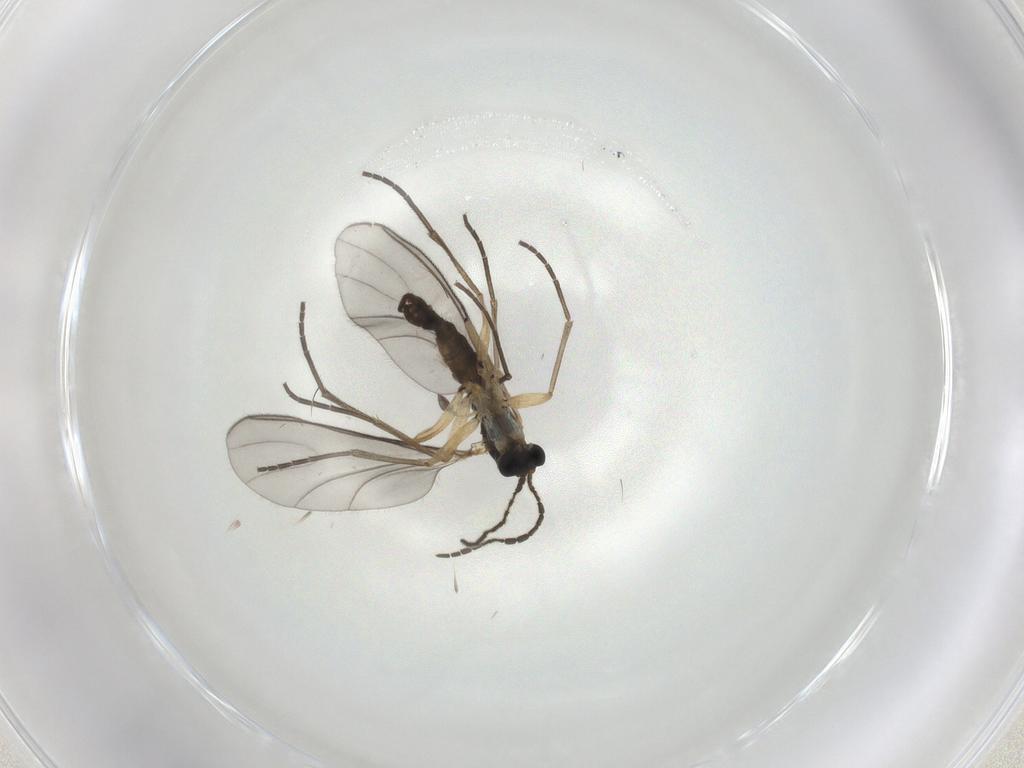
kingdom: Animalia
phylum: Arthropoda
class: Insecta
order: Diptera
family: Sciaridae
